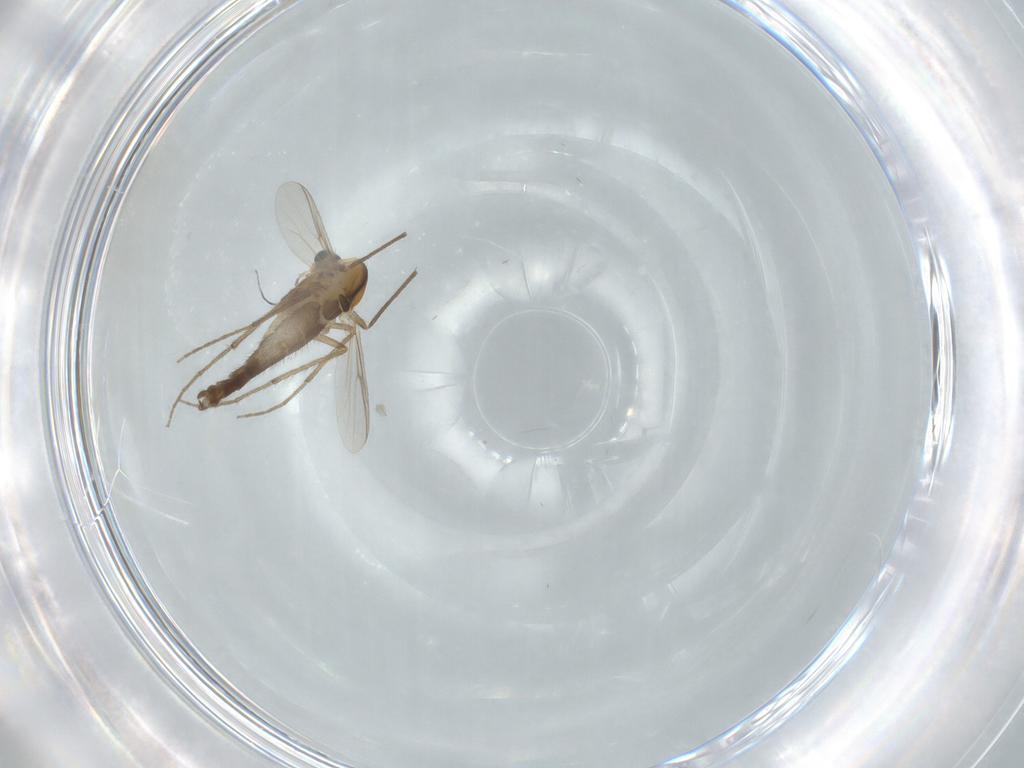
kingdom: Animalia
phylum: Arthropoda
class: Insecta
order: Diptera
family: Chironomidae
